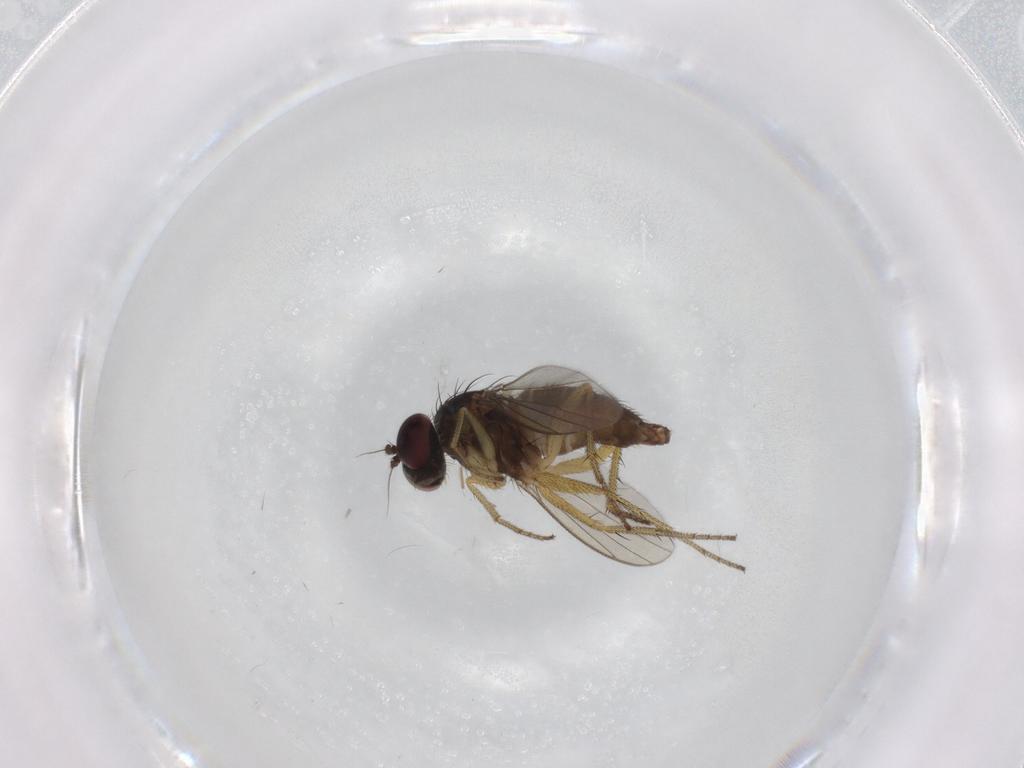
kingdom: Animalia
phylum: Arthropoda
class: Insecta
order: Diptera
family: Dolichopodidae
